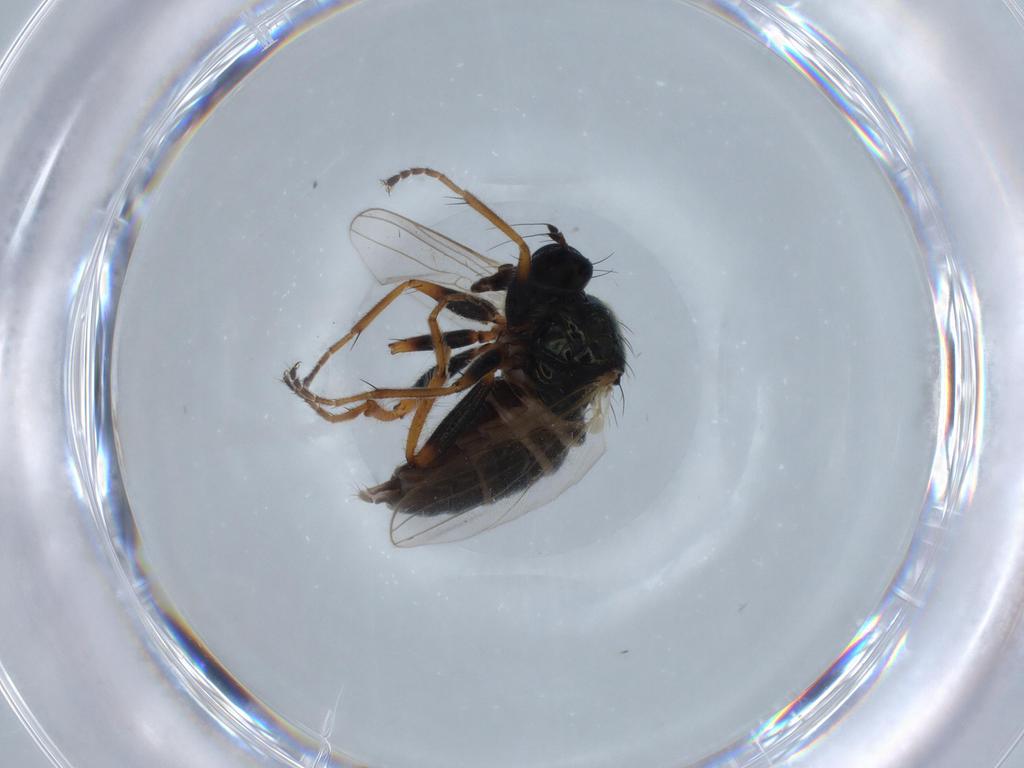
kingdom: Animalia
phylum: Arthropoda
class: Insecta
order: Diptera
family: Hybotidae
